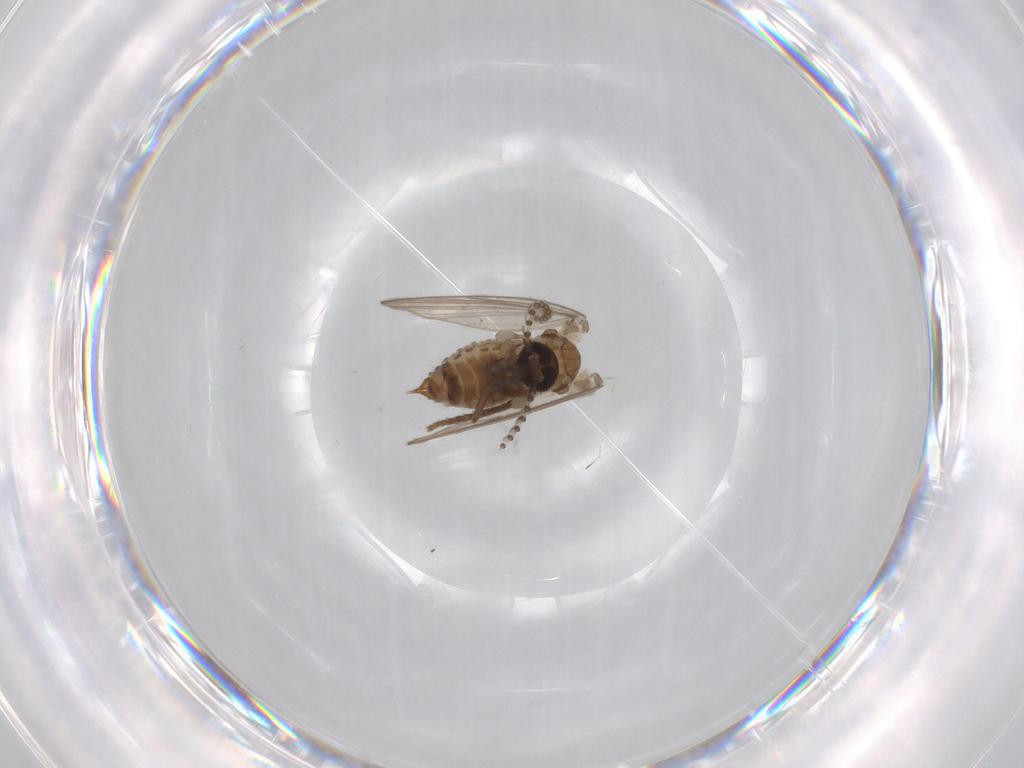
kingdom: Animalia
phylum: Arthropoda
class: Insecta
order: Diptera
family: Psychodidae
